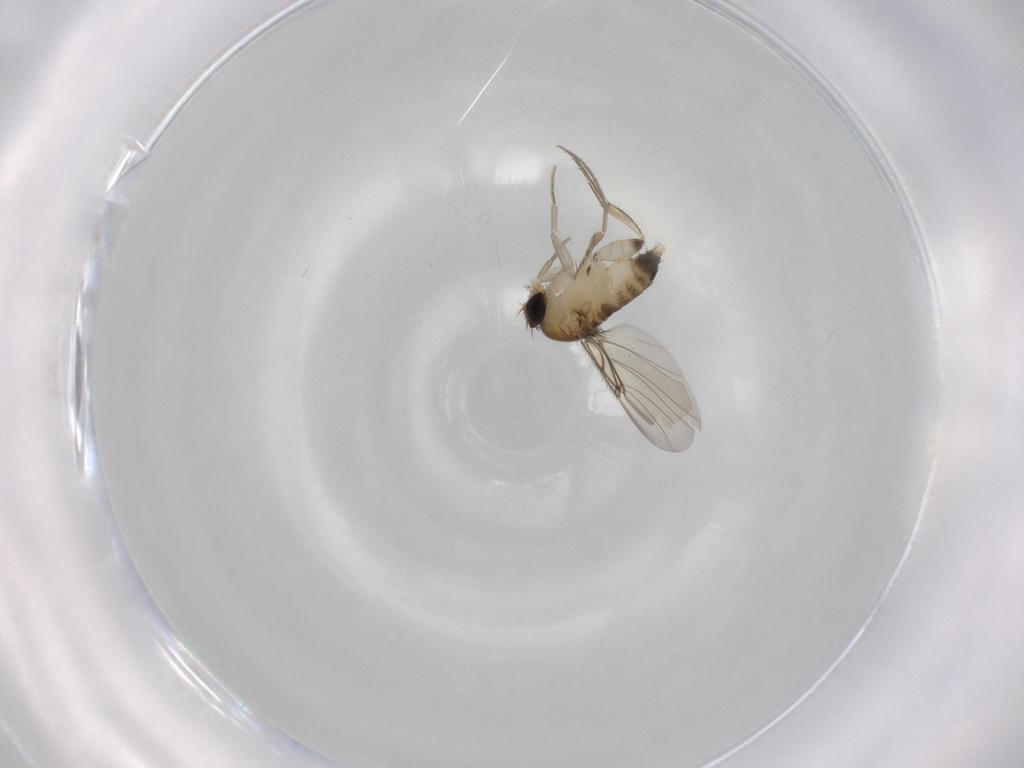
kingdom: Animalia
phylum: Arthropoda
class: Insecta
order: Diptera
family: Phoridae
